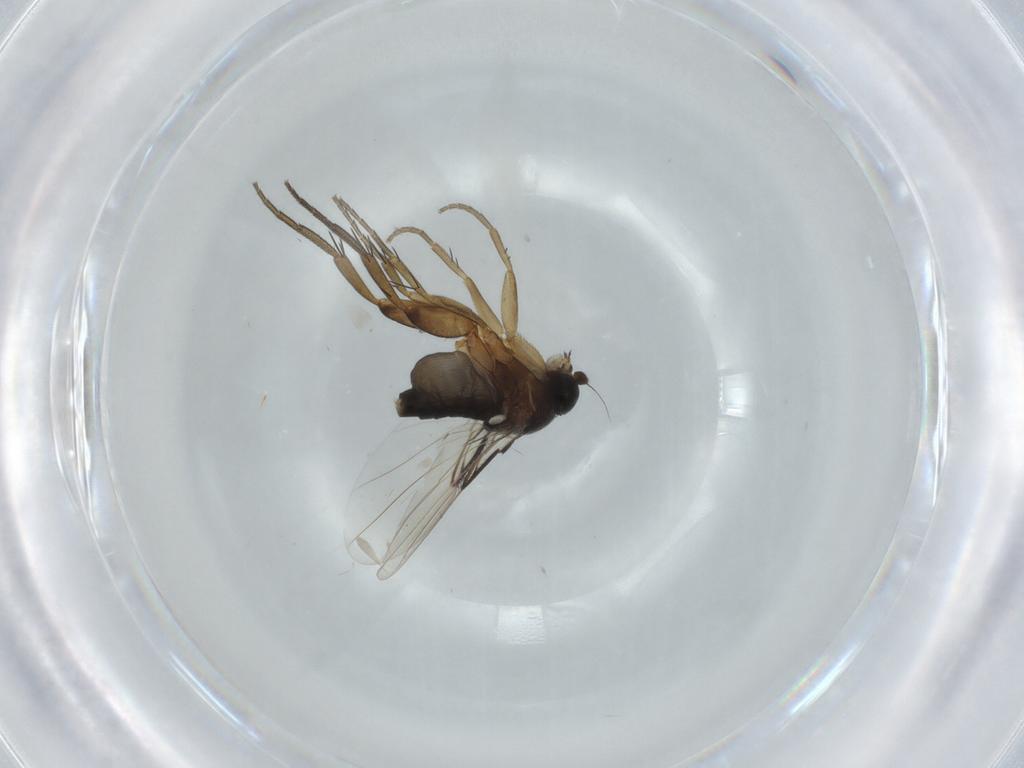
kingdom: Animalia
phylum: Arthropoda
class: Insecta
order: Diptera
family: Phoridae
